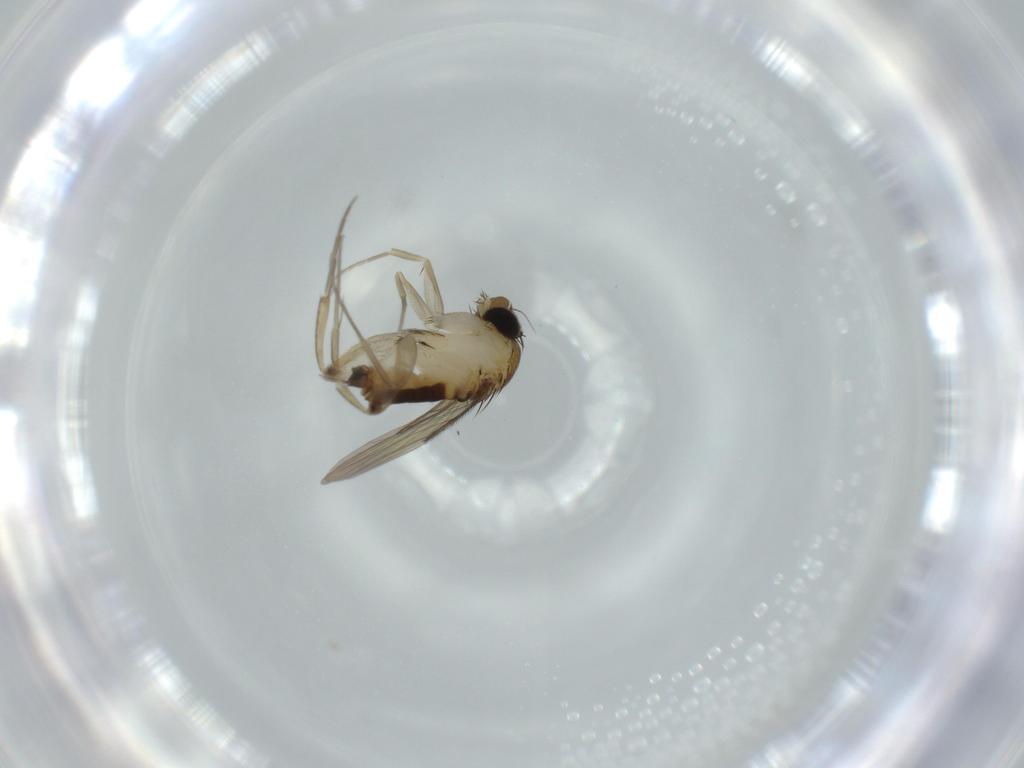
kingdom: Animalia
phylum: Arthropoda
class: Insecta
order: Diptera
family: Phoridae
